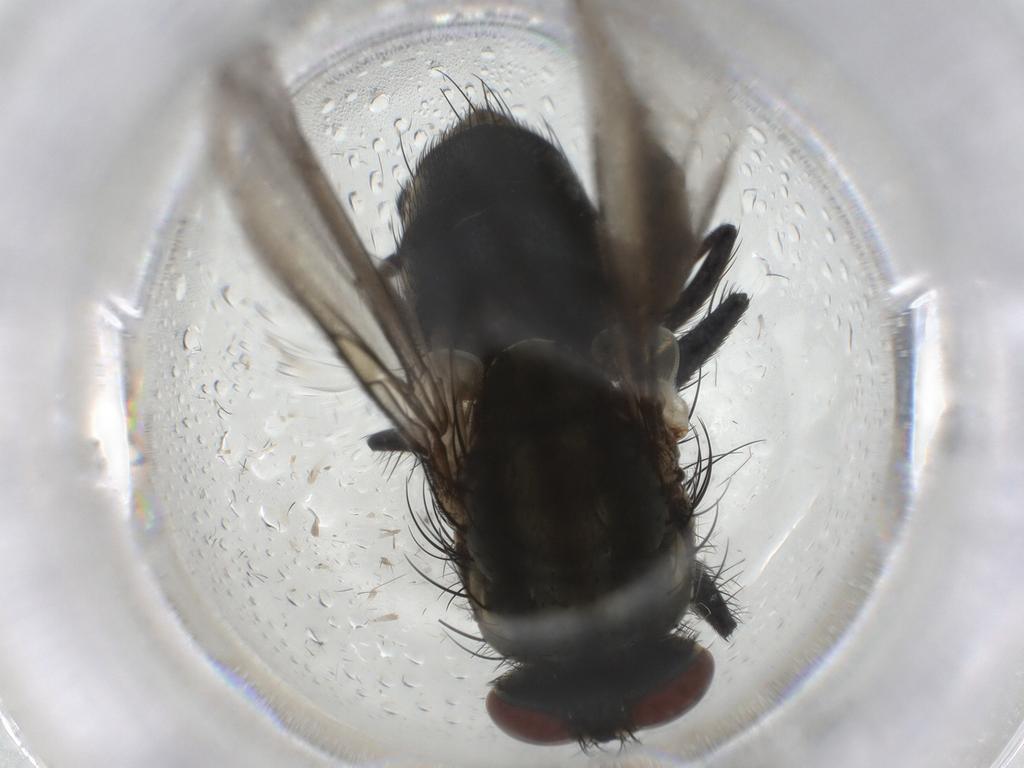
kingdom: Animalia
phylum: Arthropoda
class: Insecta
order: Diptera
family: Sarcophagidae
